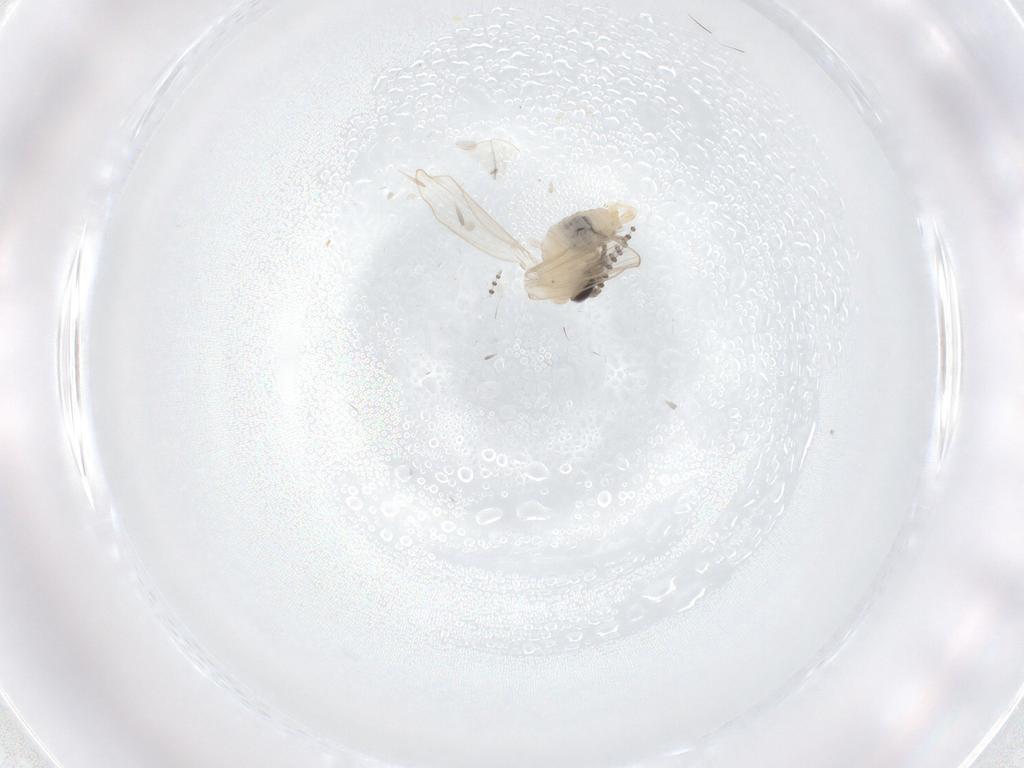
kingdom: Animalia
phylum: Arthropoda
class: Insecta
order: Diptera
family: Psychodidae
